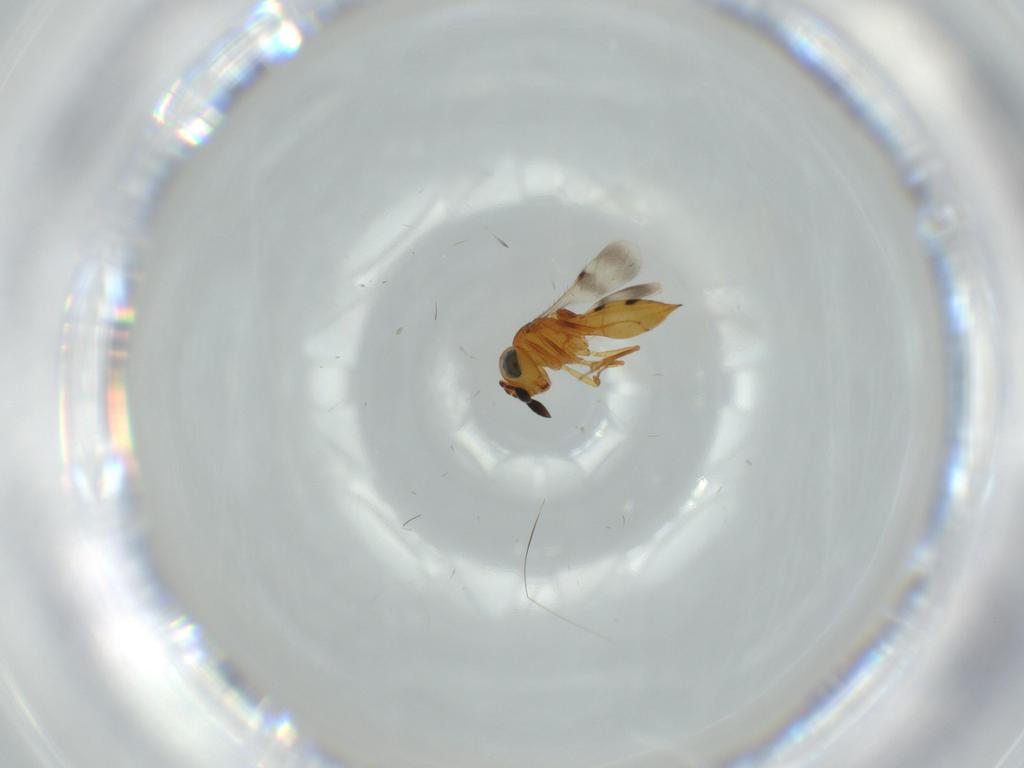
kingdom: Animalia
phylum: Arthropoda
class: Insecta
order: Hymenoptera
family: Scelionidae
